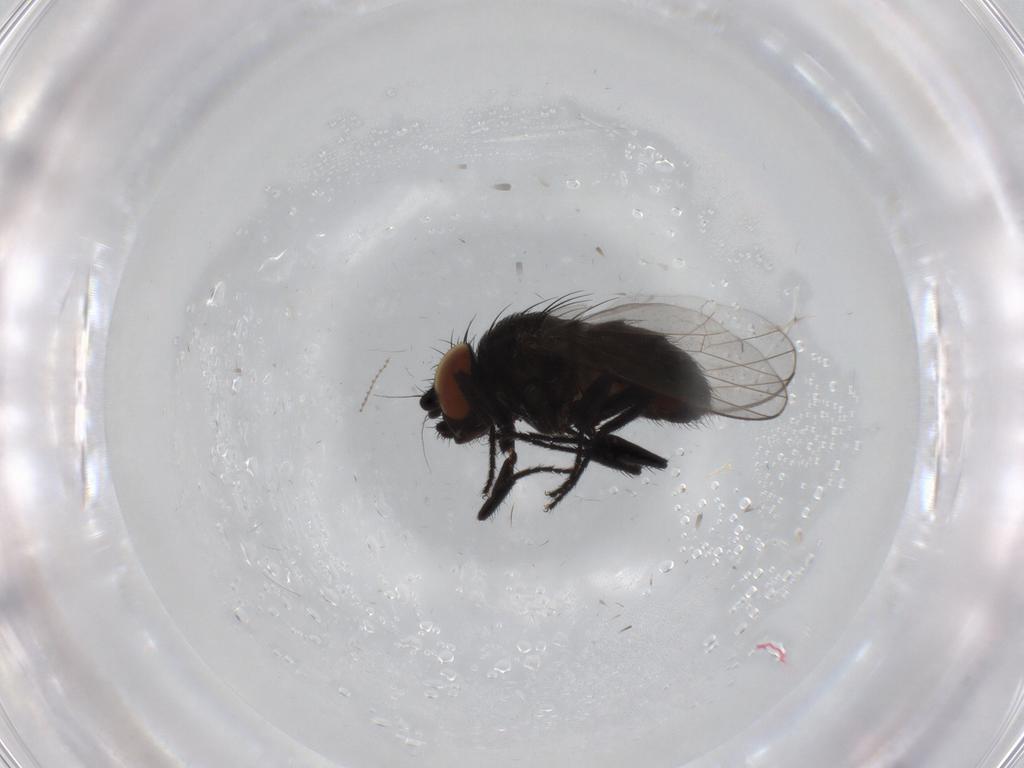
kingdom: Animalia
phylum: Arthropoda
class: Insecta
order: Diptera
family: Milichiidae
